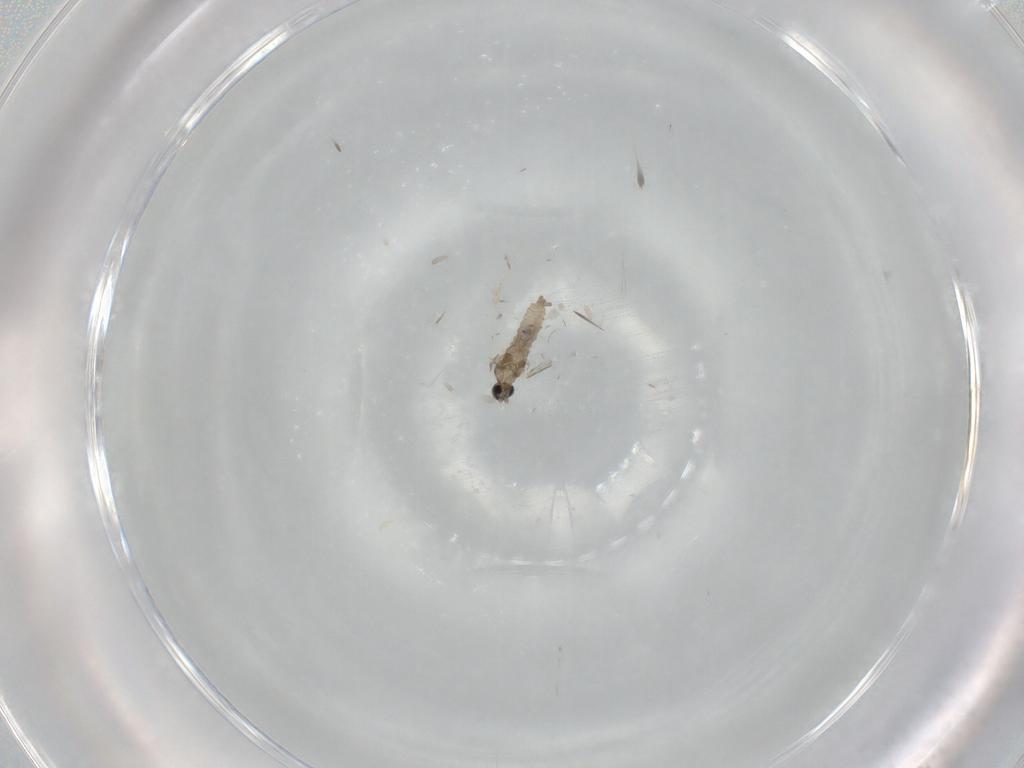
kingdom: Animalia
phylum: Arthropoda
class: Insecta
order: Diptera
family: Cecidomyiidae
